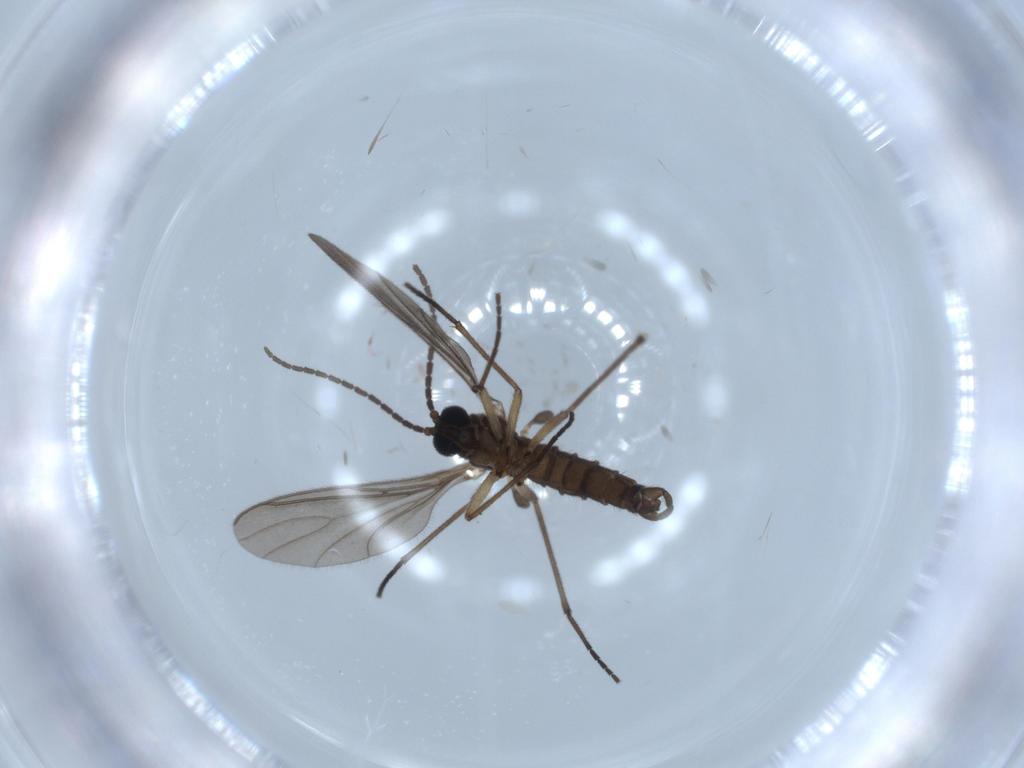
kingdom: Animalia
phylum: Arthropoda
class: Insecta
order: Diptera
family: Sciaridae
